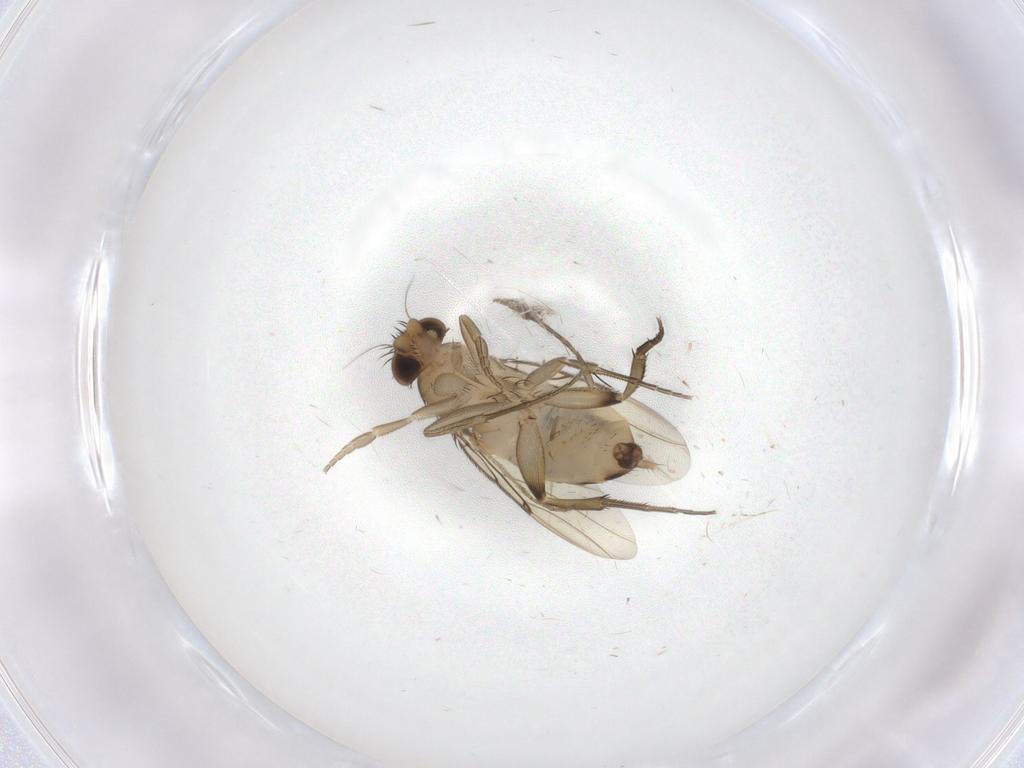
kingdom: Animalia
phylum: Arthropoda
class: Insecta
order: Diptera
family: Mycetophilidae
